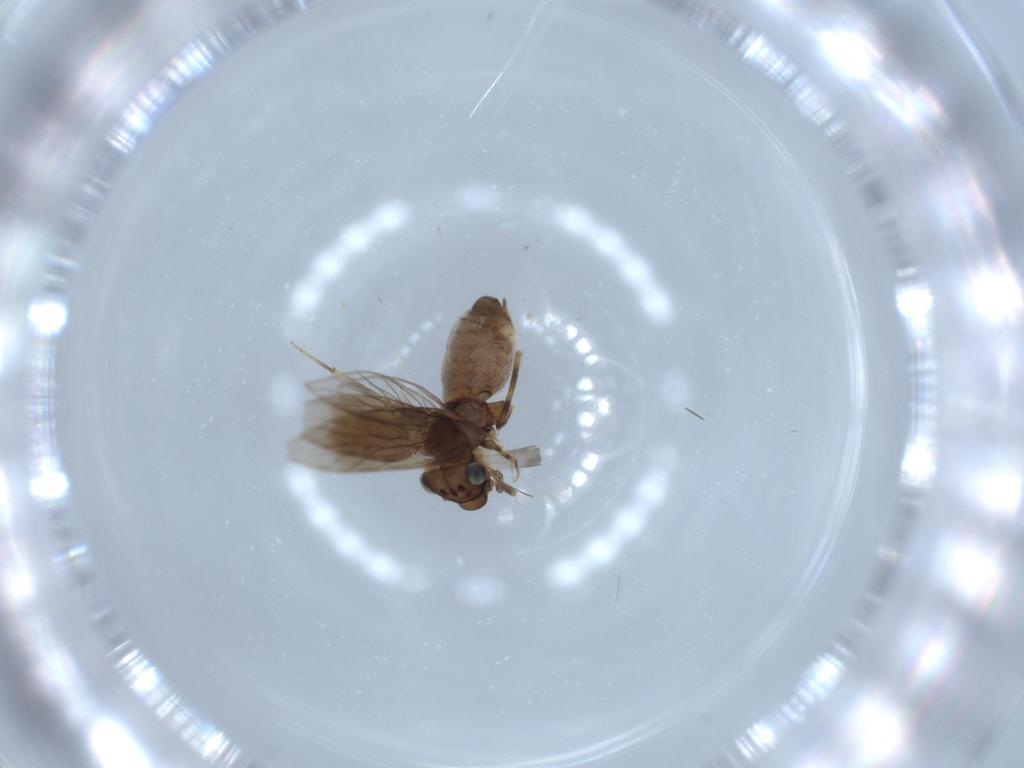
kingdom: Animalia
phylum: Arthropoda
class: Insecta
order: Psocodea
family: Lepidopsocidae
